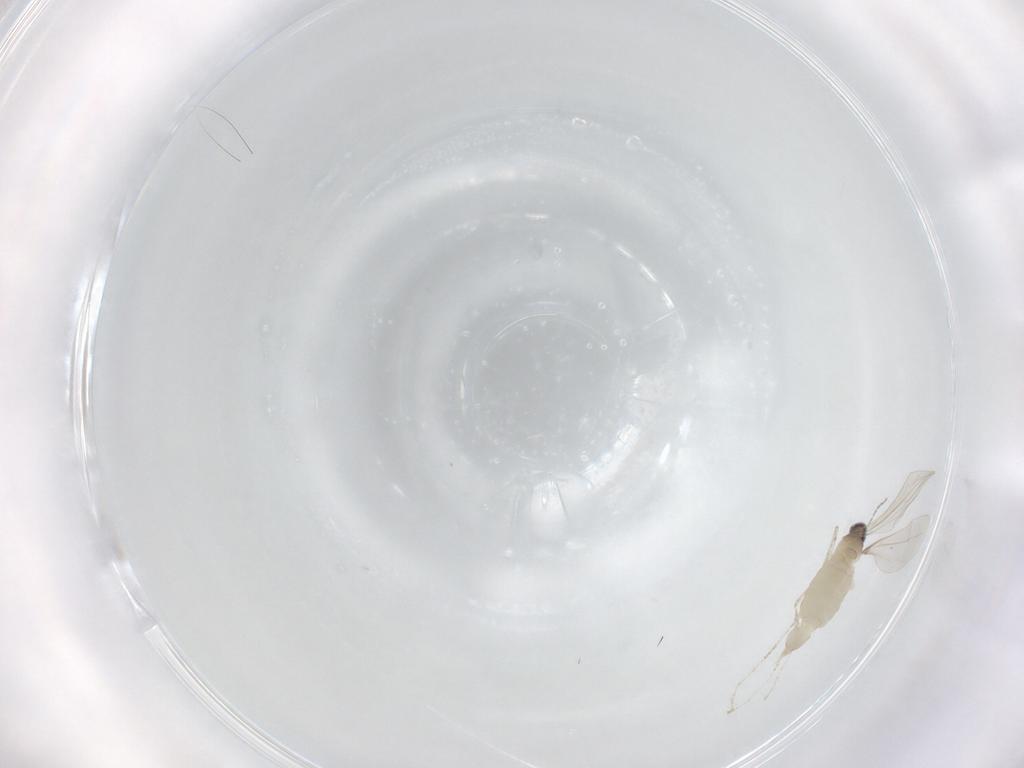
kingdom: Animalia
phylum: Arthropoda
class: Insecta
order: Diptera
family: Cecidomyiidae
